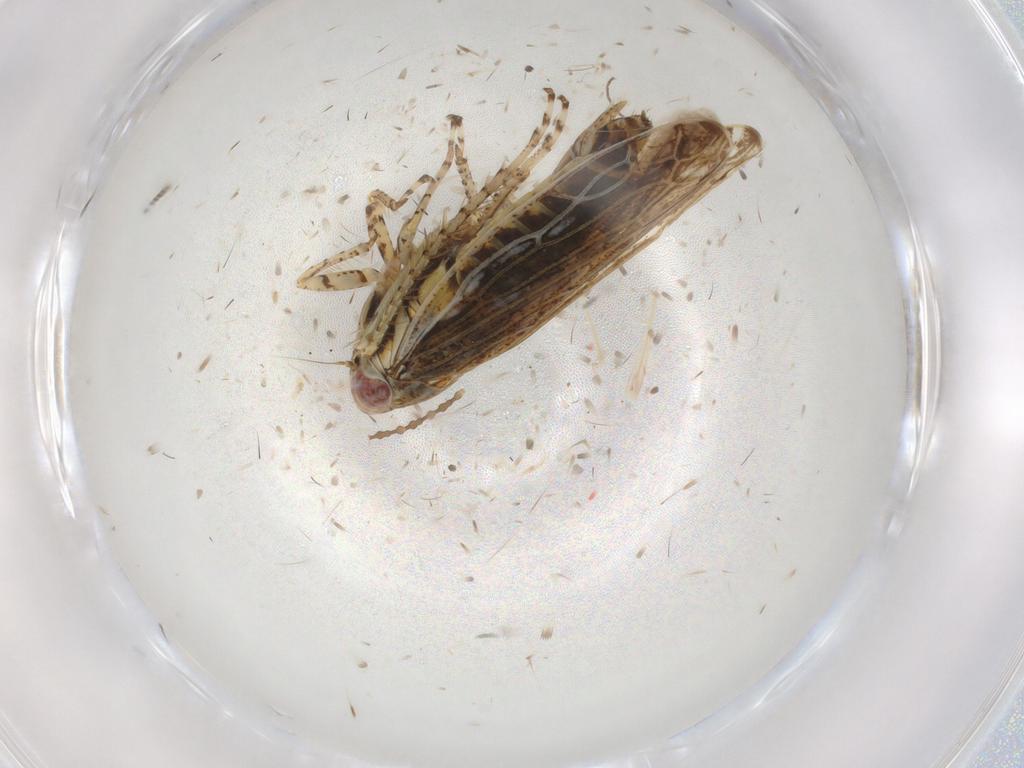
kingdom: Animalia
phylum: Arthropoda
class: Insecta
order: Hemiptera
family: Cicadellidae
